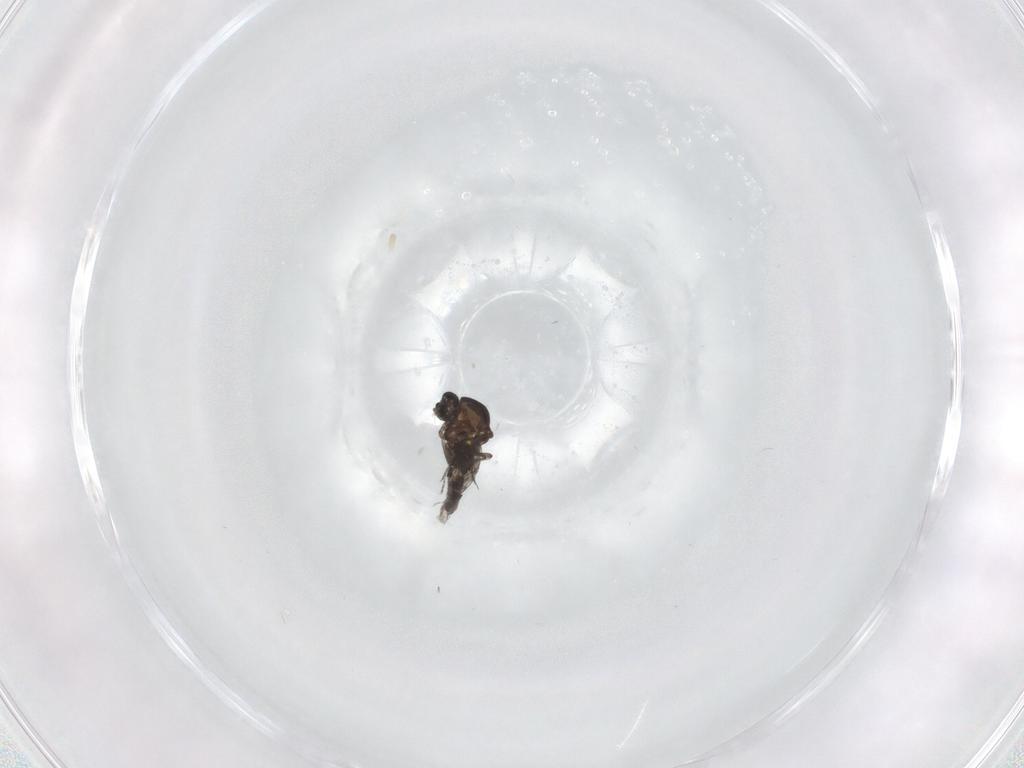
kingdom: Animalia
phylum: Arthropoda
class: Insecta
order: Diptera
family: Ceratopogonidae
